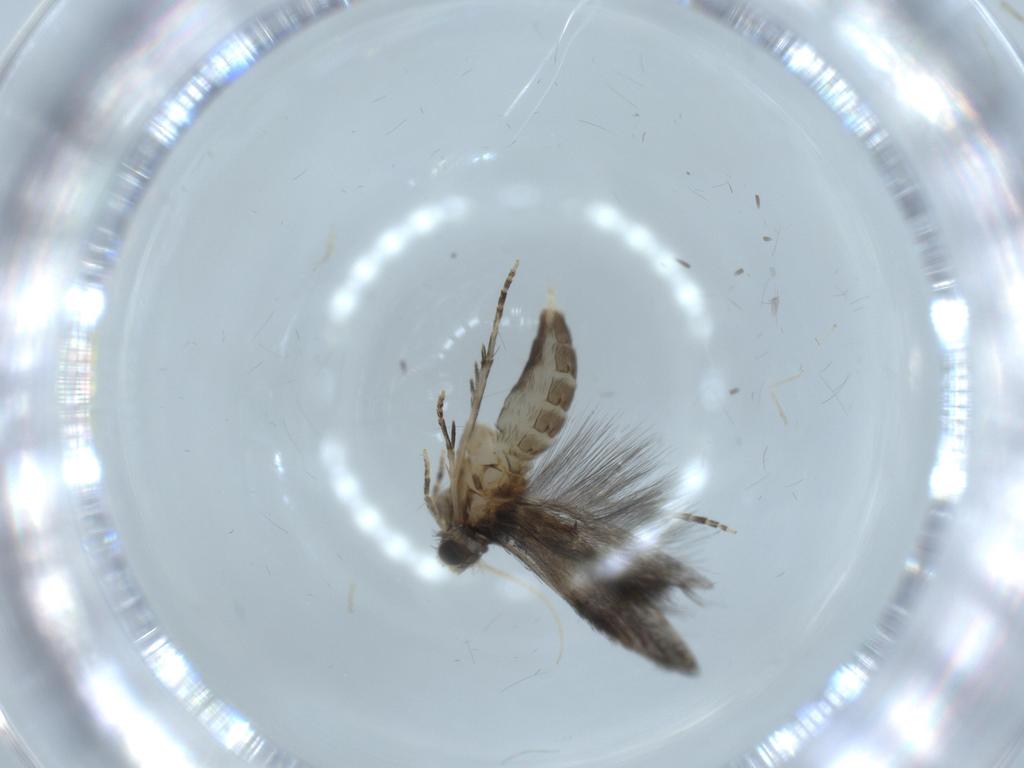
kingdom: Animalia
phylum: Arthropoda
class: Insecta
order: Trichoptera
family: Hydroptilidae
